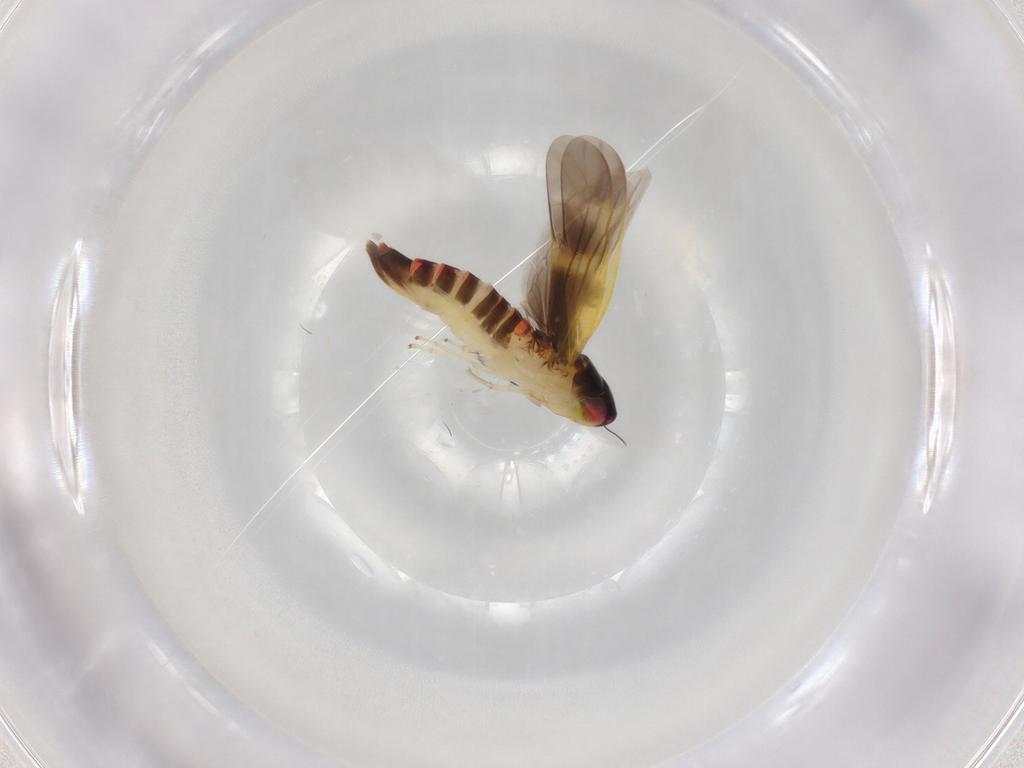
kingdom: Animalia
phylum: Arthropoda
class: Insecta
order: Hemiptera
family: Cicadellidae
